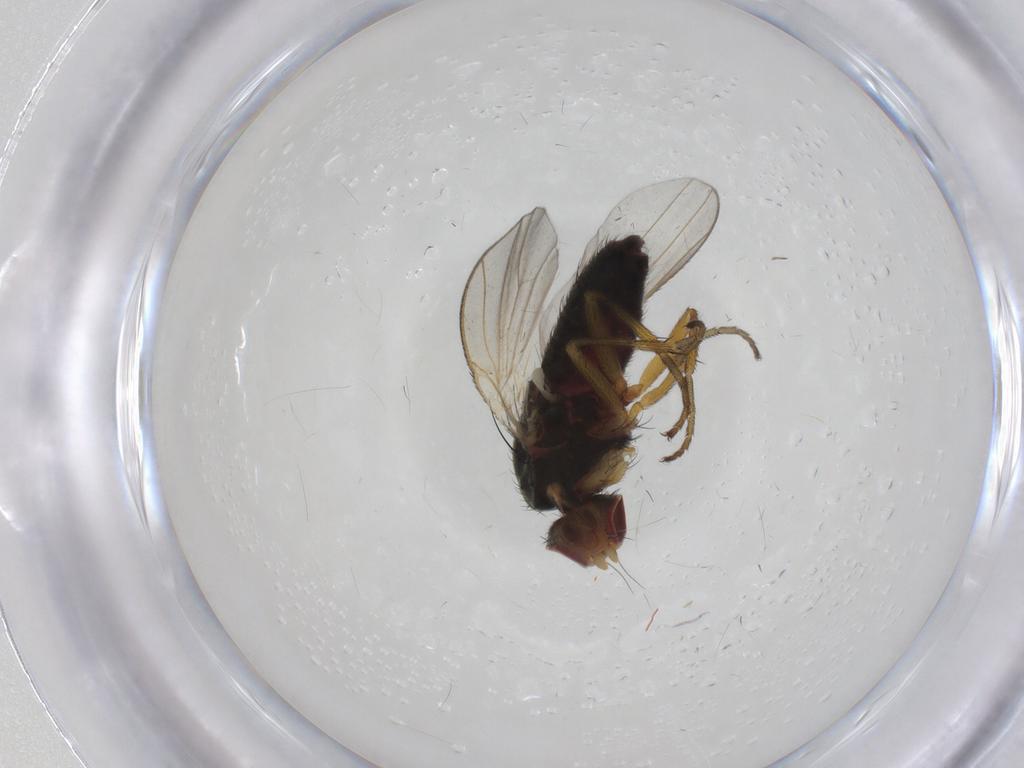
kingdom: Animalia
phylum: Arthropoda
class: Insecta
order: Diptera
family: Heleomyzidae
